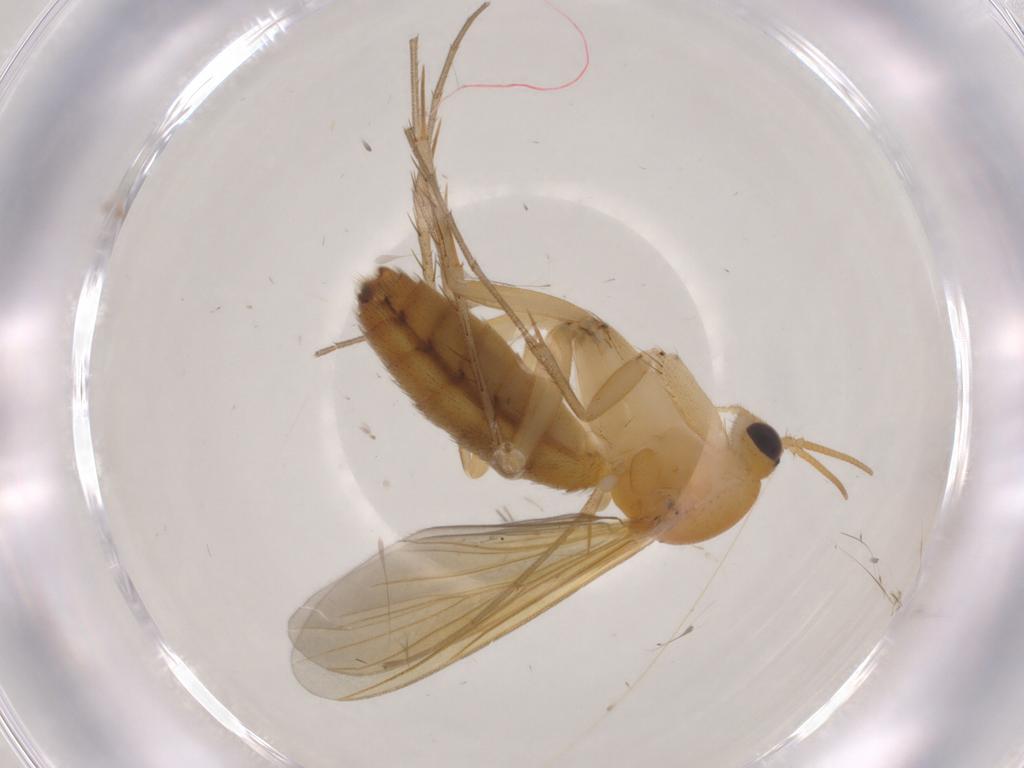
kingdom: Animalia
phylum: Arthropoda
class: Insecta
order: Diptera
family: Mycetophilidae
